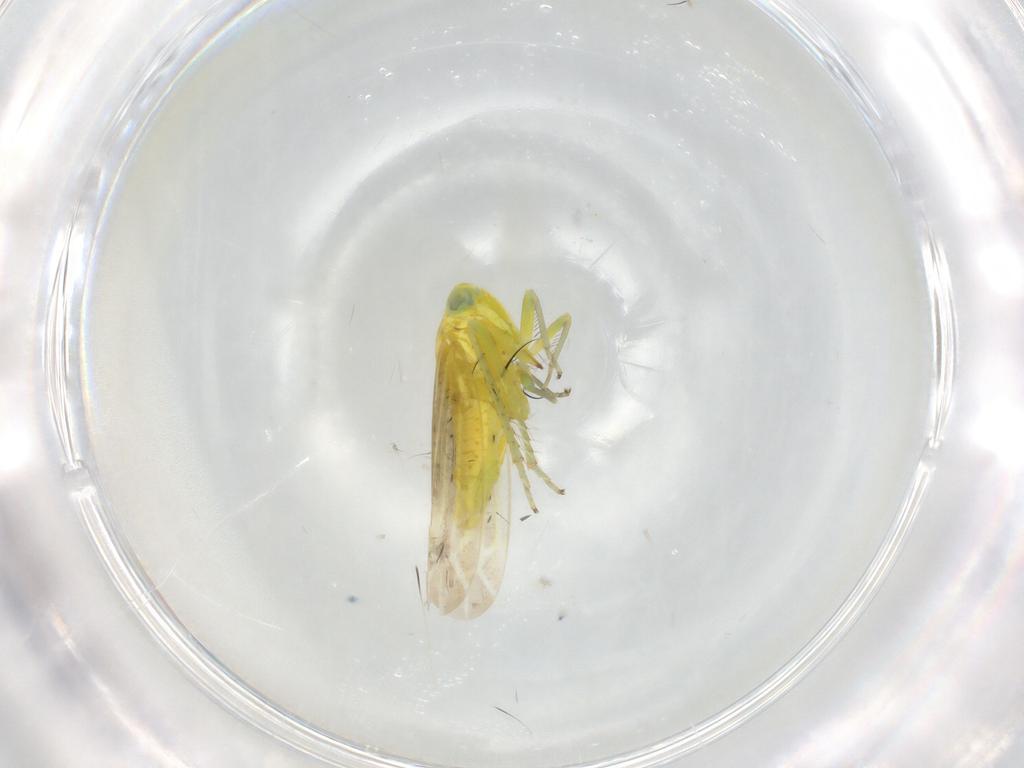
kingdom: Animalia
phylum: Arthropoda
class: Insecta
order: Hemiptera
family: Cicadellidae
